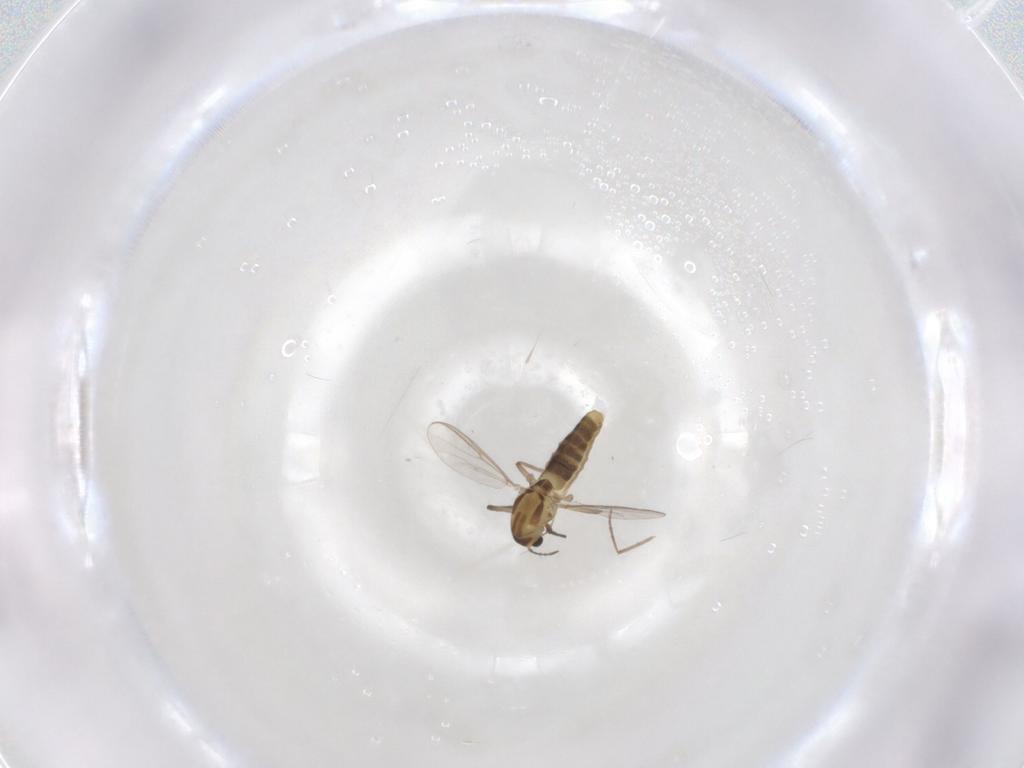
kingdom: Animalia
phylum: Arthropoda
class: Insecta
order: Diptera
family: Chironomidae
